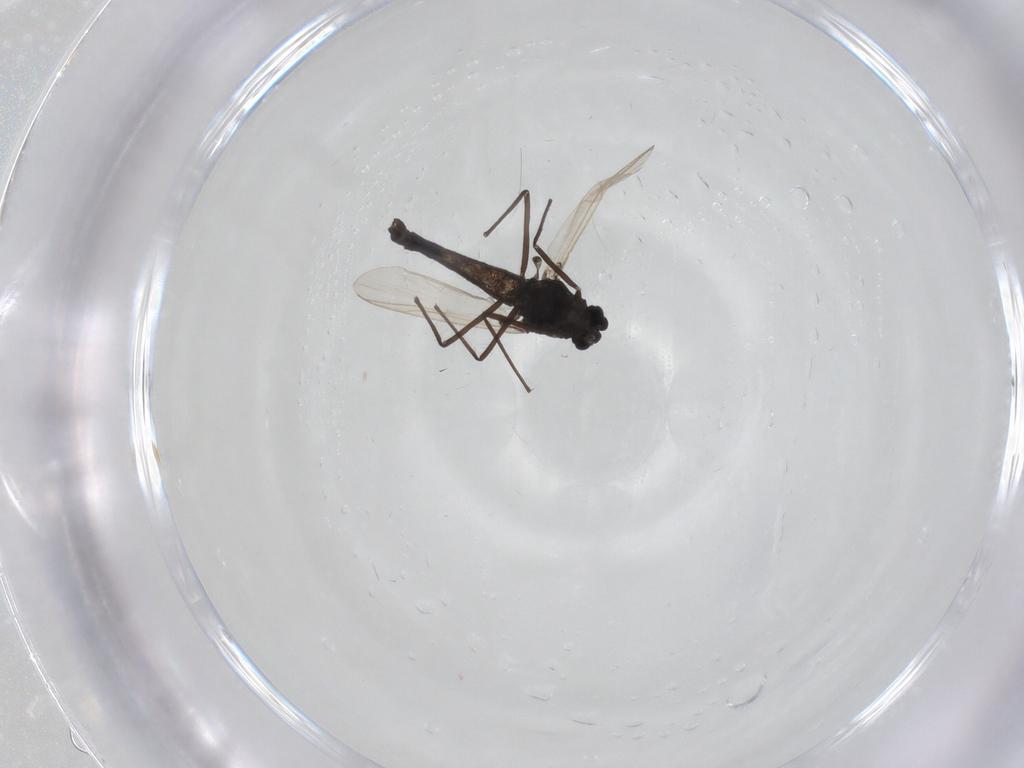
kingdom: Animalia
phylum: Arthropoda
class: Insecta
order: Diptera
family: Chironomidae
